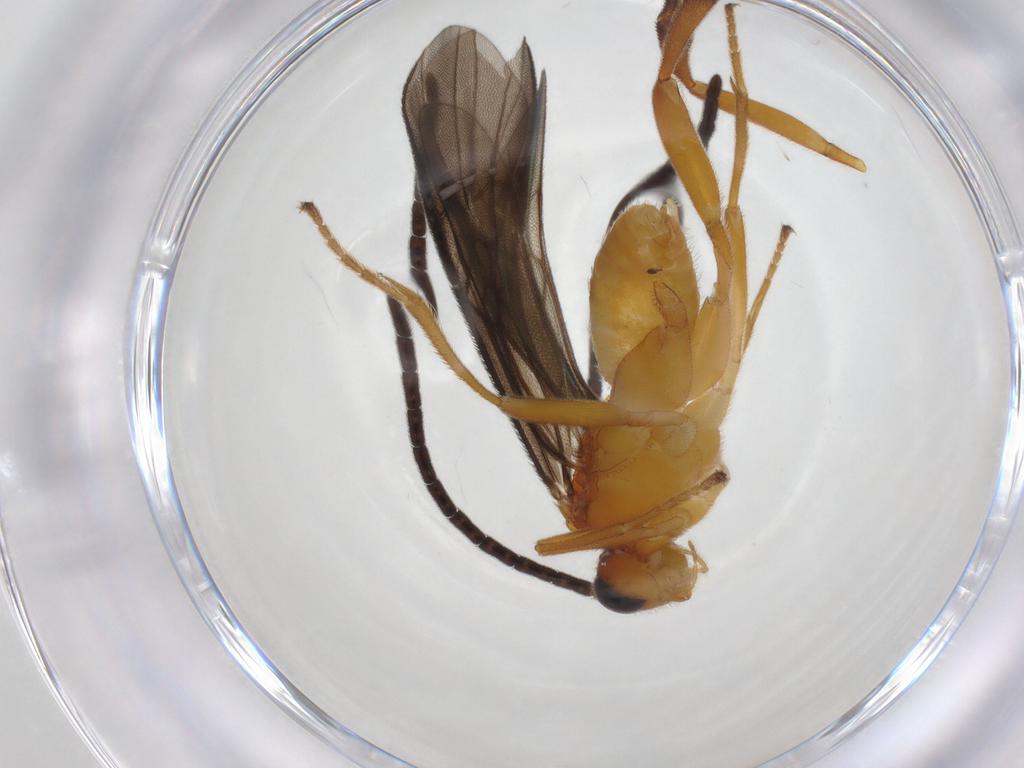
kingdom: Animalia
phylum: Arthropoda
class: Insecta
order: Hymenoptera
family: Braconidae
